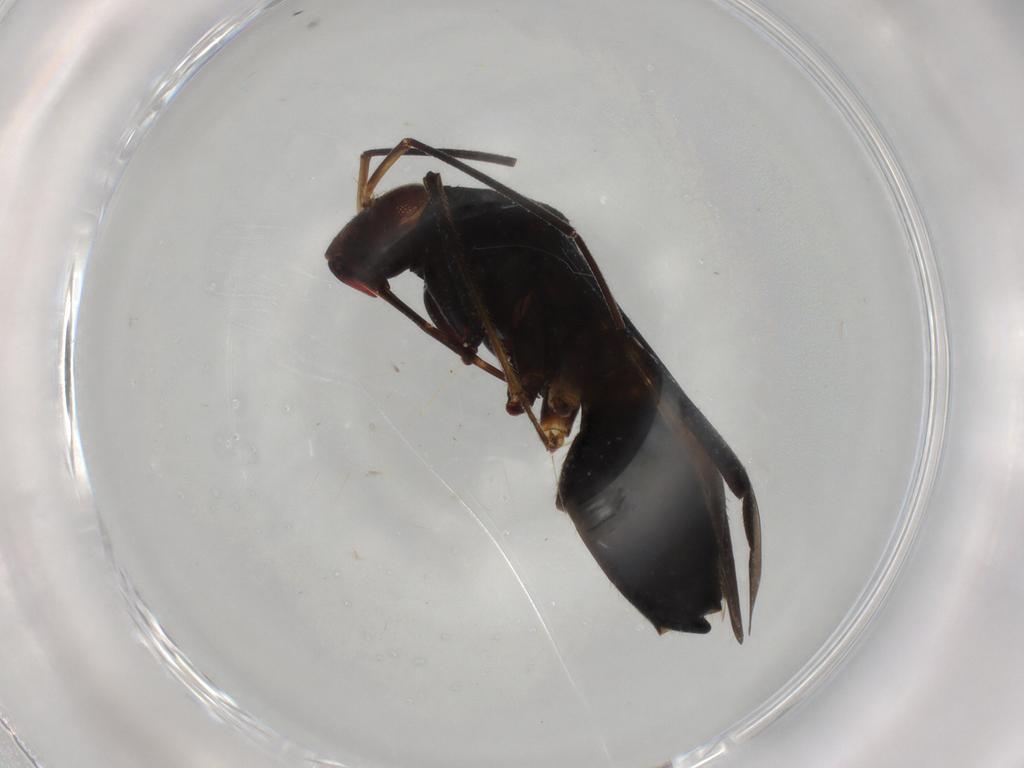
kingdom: Animalia
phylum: Arthropoda
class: Insecta
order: Hemiptera
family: Miridae
